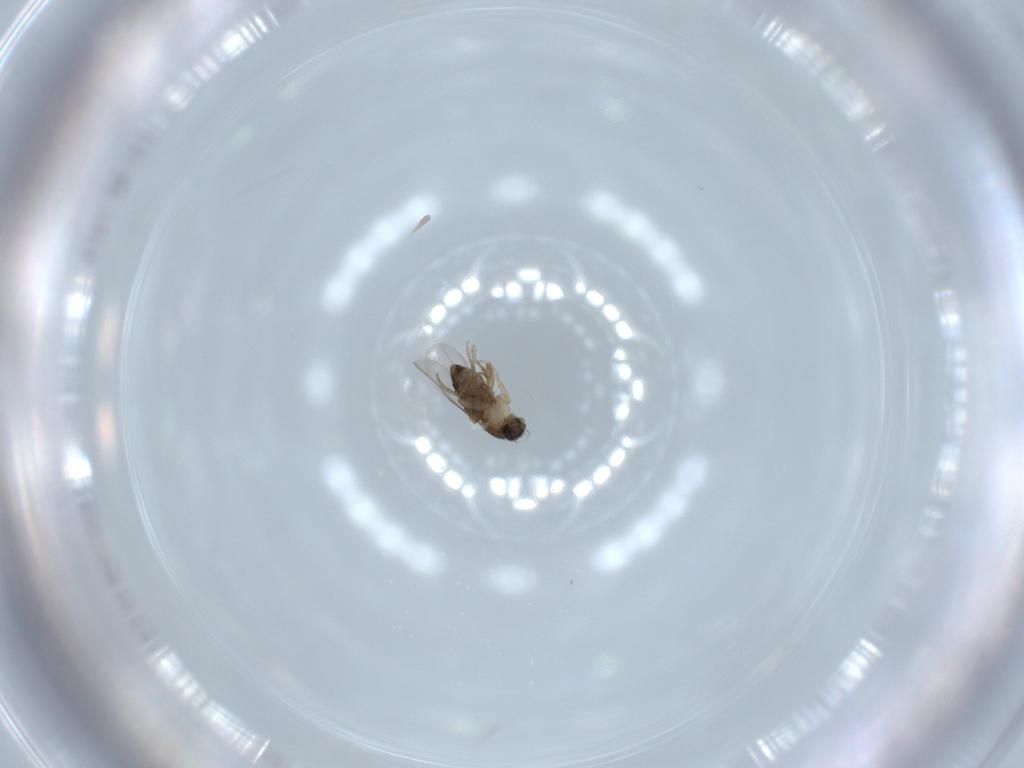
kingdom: Animalia
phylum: Arthropoda
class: Insecta
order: Diptera
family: Phoridae
